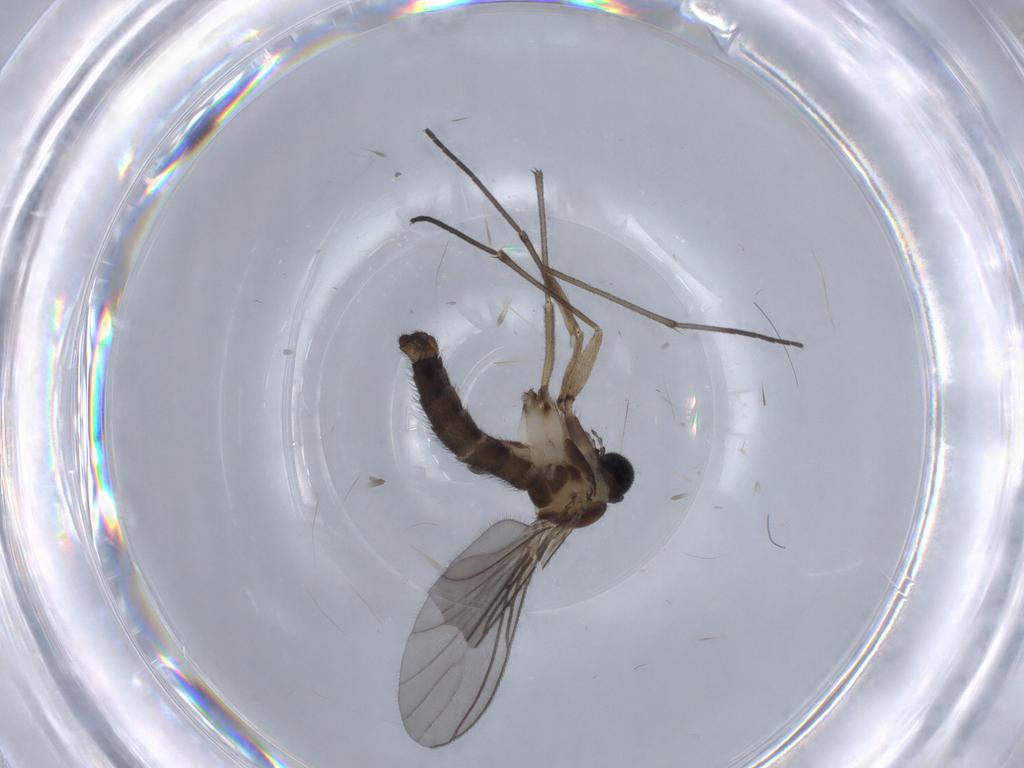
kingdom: Animalia
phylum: Arthropoda
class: Insecta
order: Diptera
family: Sciaridae
